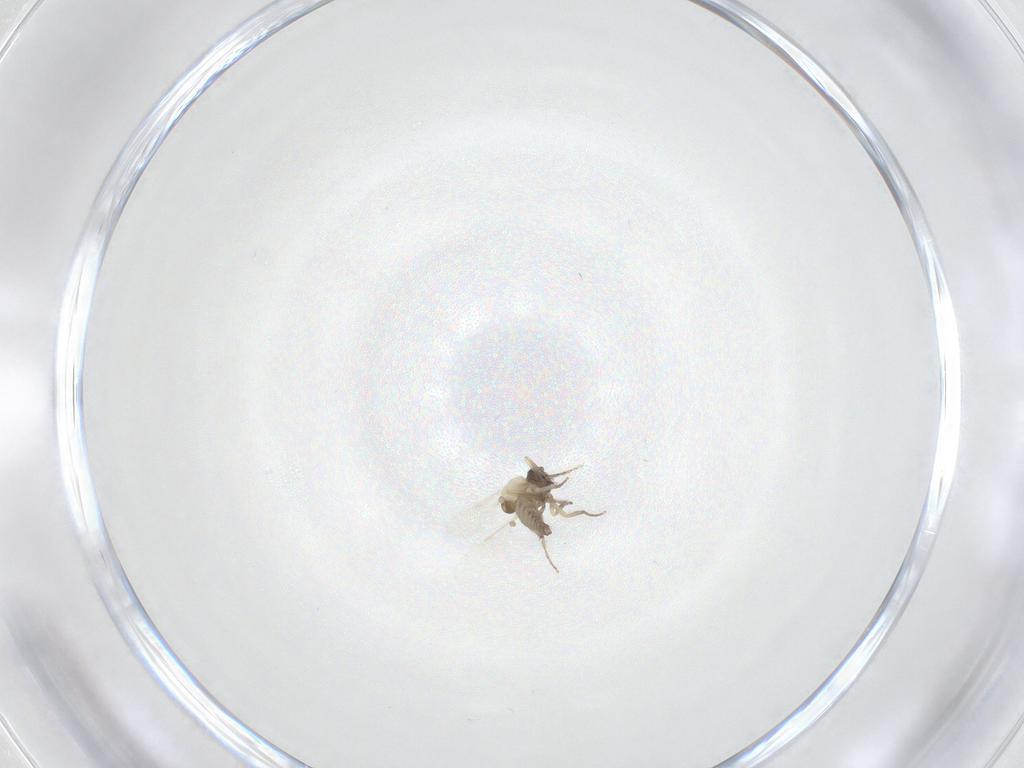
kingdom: Animalia
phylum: Arthropoda
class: Insecta
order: Diptera
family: Ceratopogonidae
